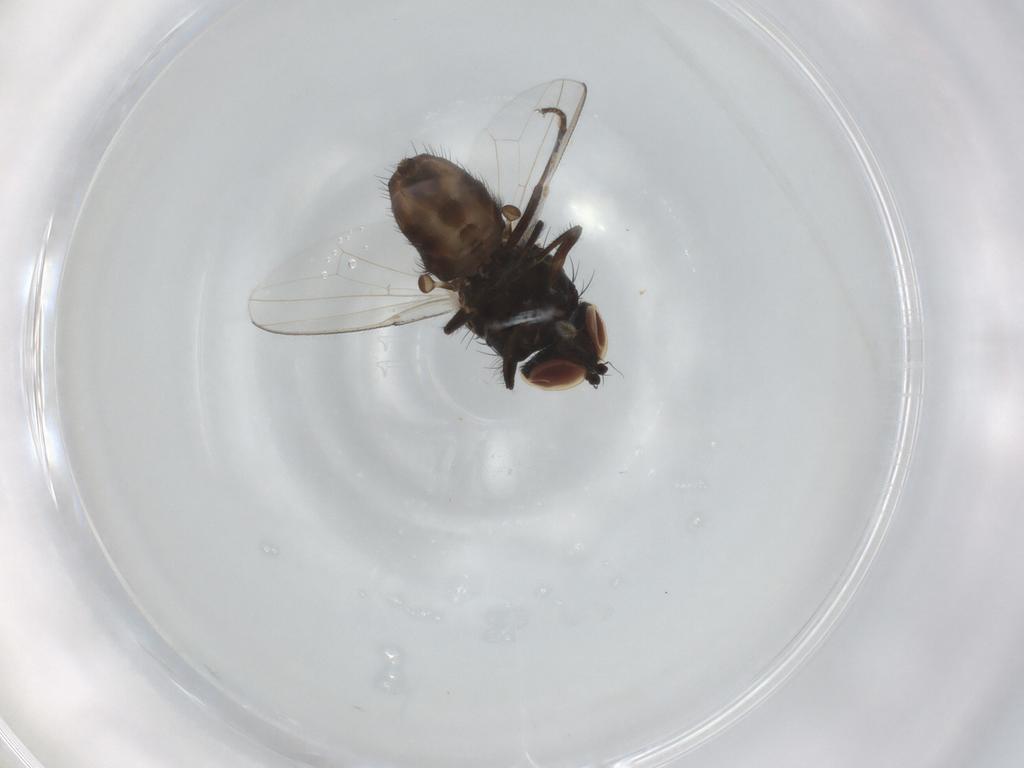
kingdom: Animalia
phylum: Arthropoda
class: Insecta
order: Diptera
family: Milichiidae
